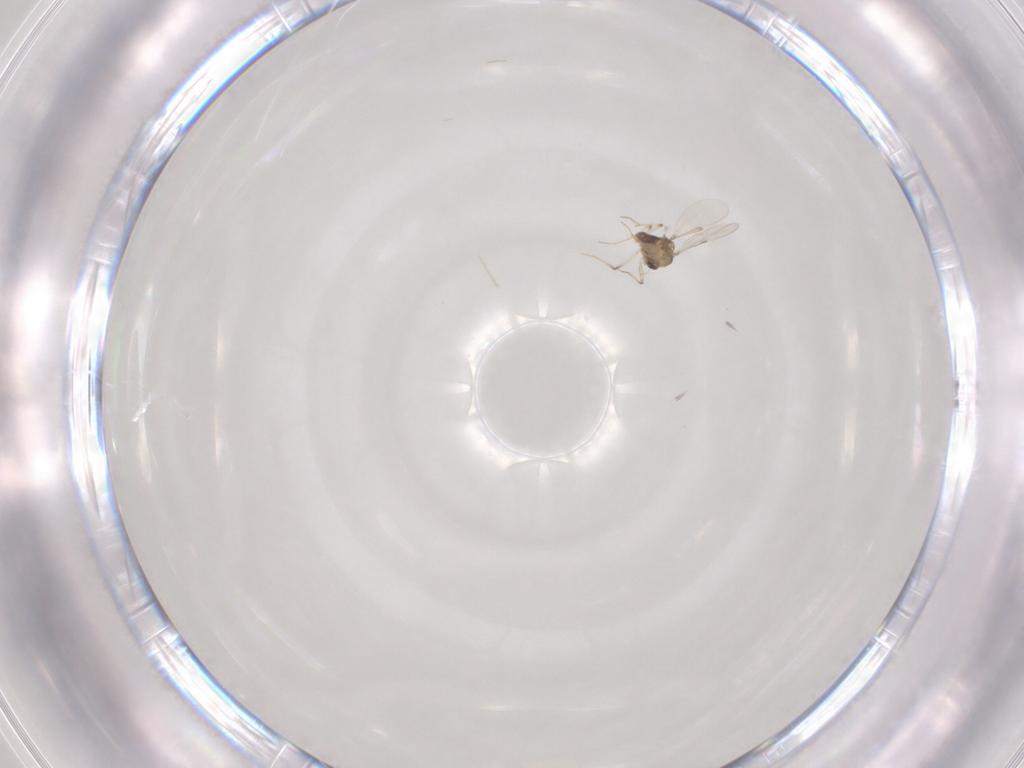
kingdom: Animalia
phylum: Arthropoda
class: Insecta
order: Diptera
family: Chironomidae
